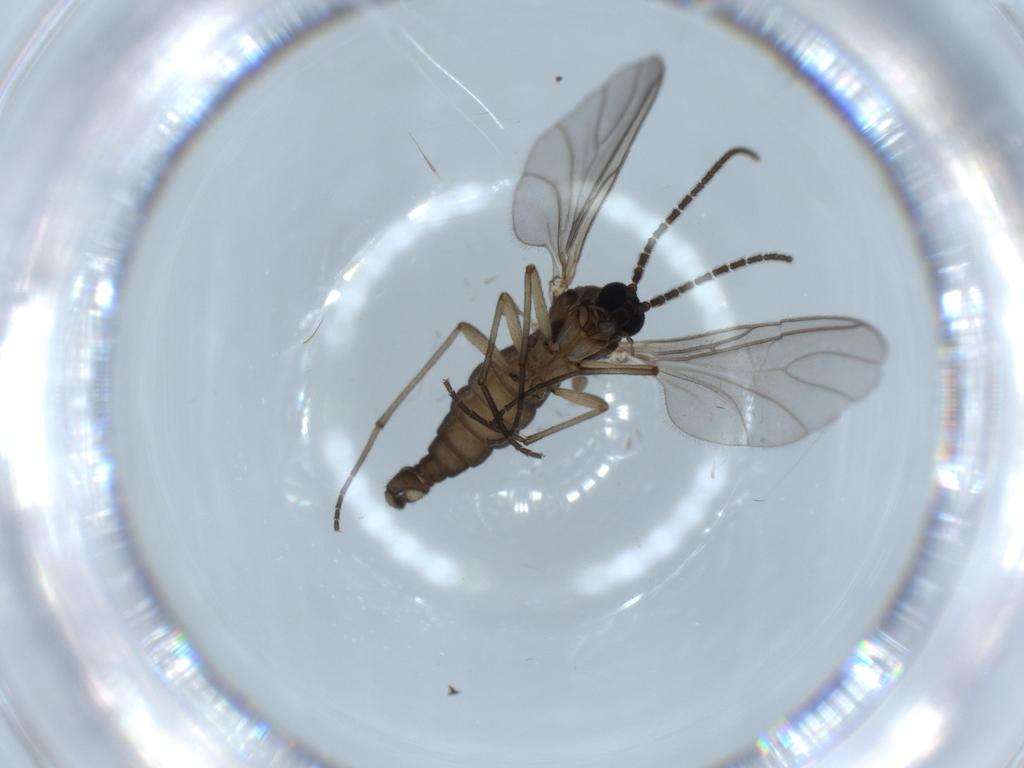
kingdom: Animalia
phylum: Arthropoda
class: Insecta
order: Diptera
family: Sciaridae
